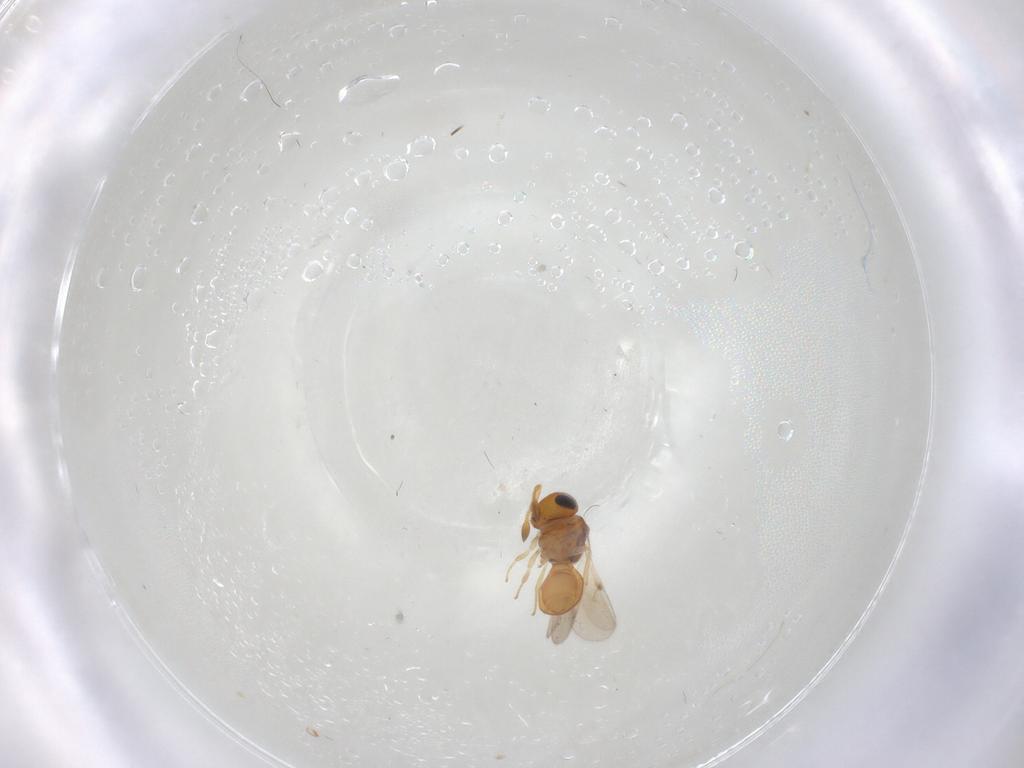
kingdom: Animalia
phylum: Arthropoda
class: Insecta
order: Hymenoptera
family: Scelionidae
